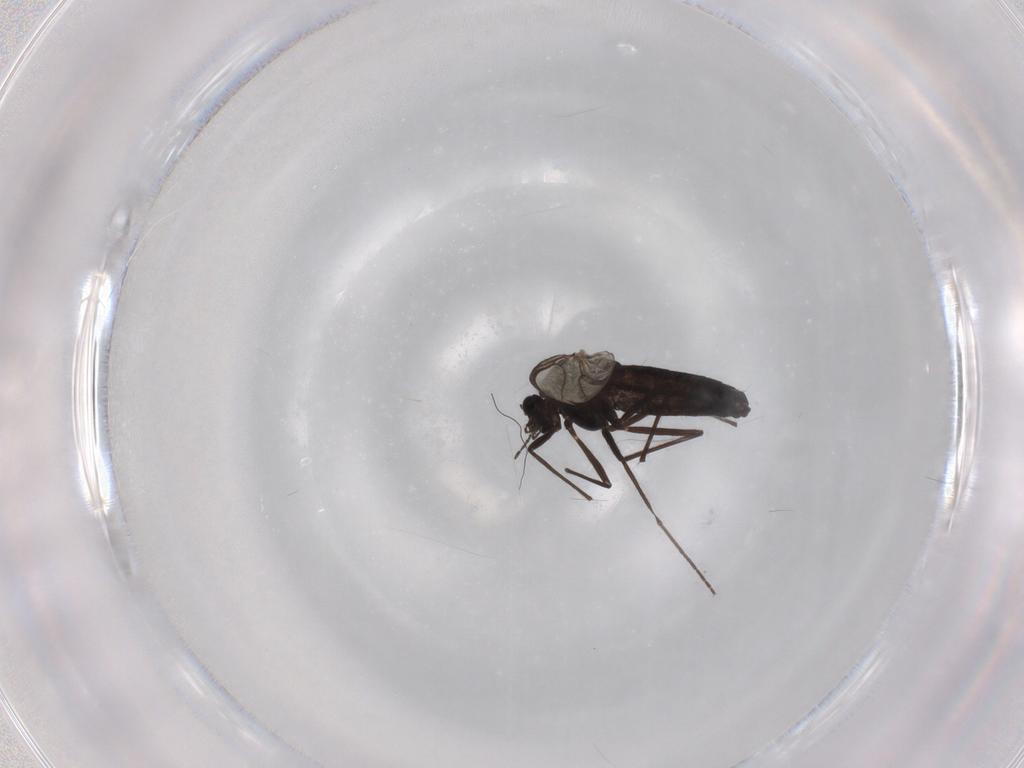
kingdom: Animalia
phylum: Arthropoda
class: Insecta
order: Diptera
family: Chironomidae
